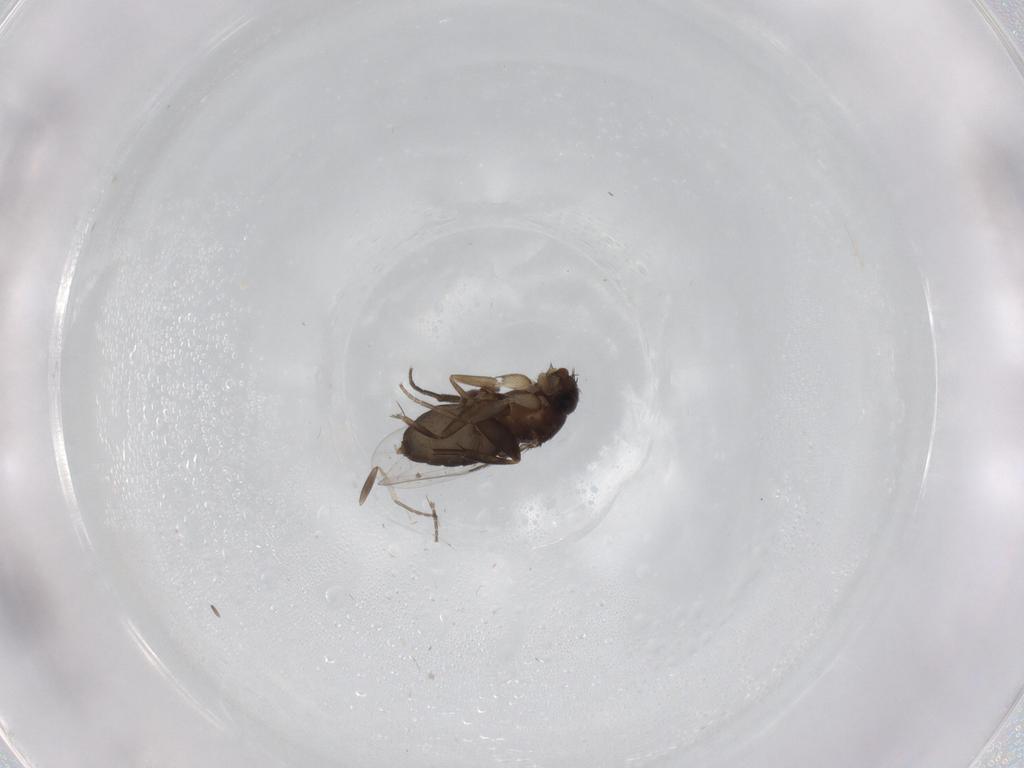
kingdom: Animalia
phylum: Arthropoda
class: Insecta
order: Diptera
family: Phoridae
